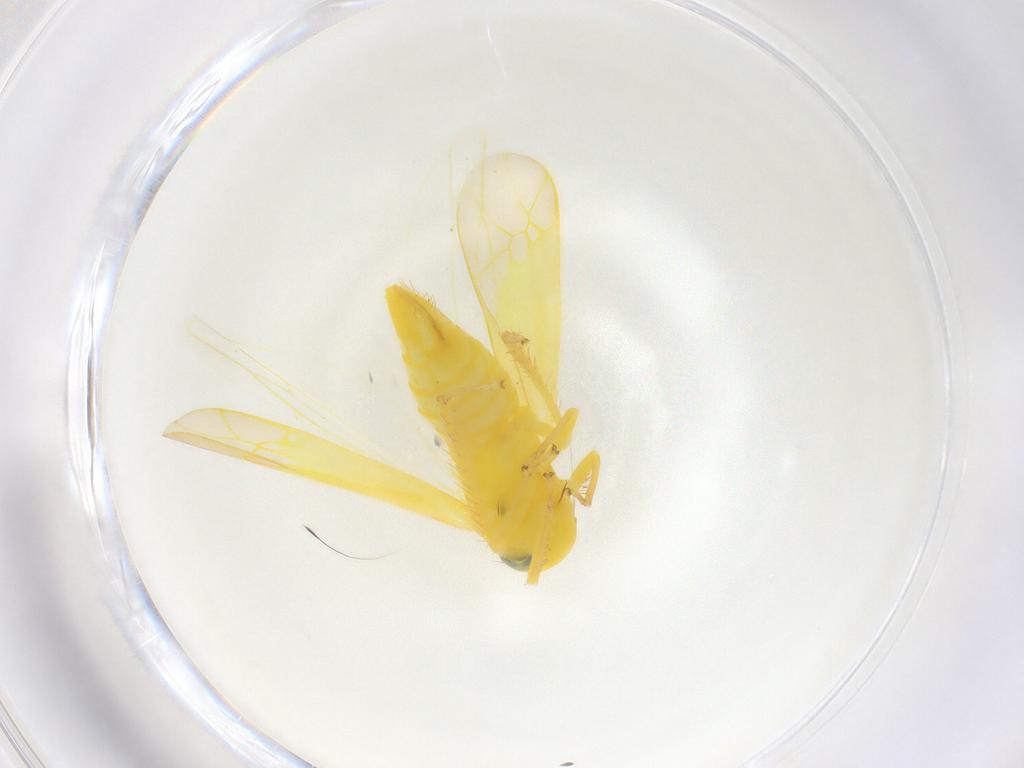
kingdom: Animalia
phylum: Arthropoda
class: Insecta
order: Hemiptera
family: Cicadellidae
